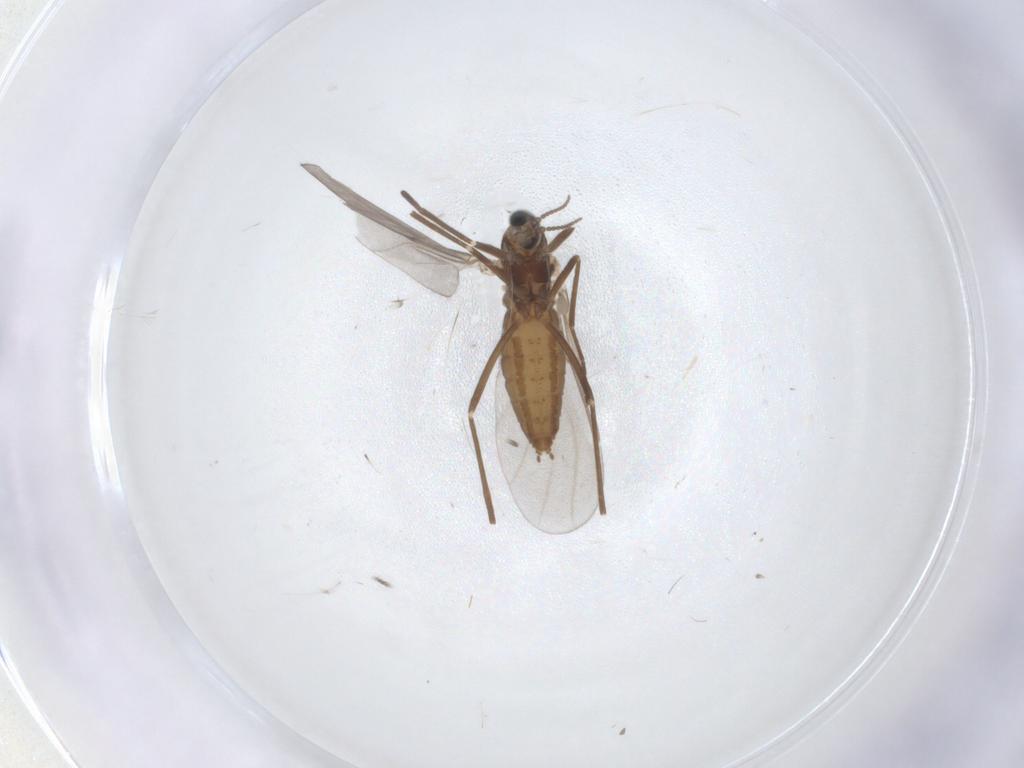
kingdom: Animalia
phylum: Arthropoda
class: Insecta
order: Diptera
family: Cecidomyiidae
